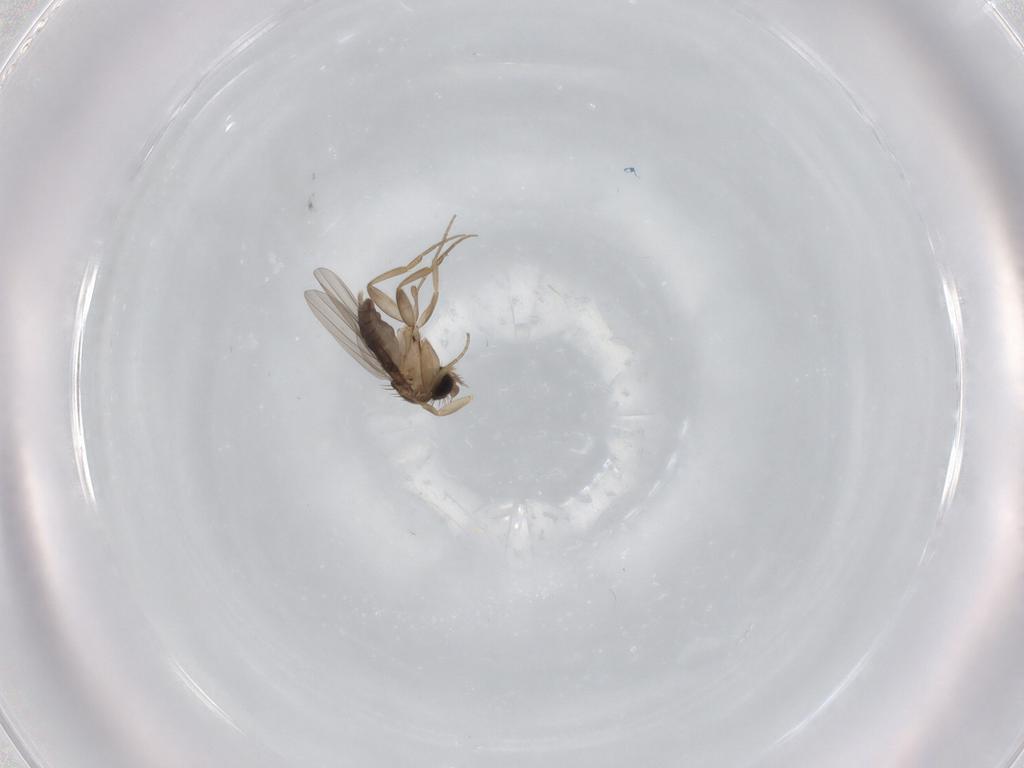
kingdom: Animalia
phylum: Arthropoda
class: Insecta
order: Diptera
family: Phoridae
